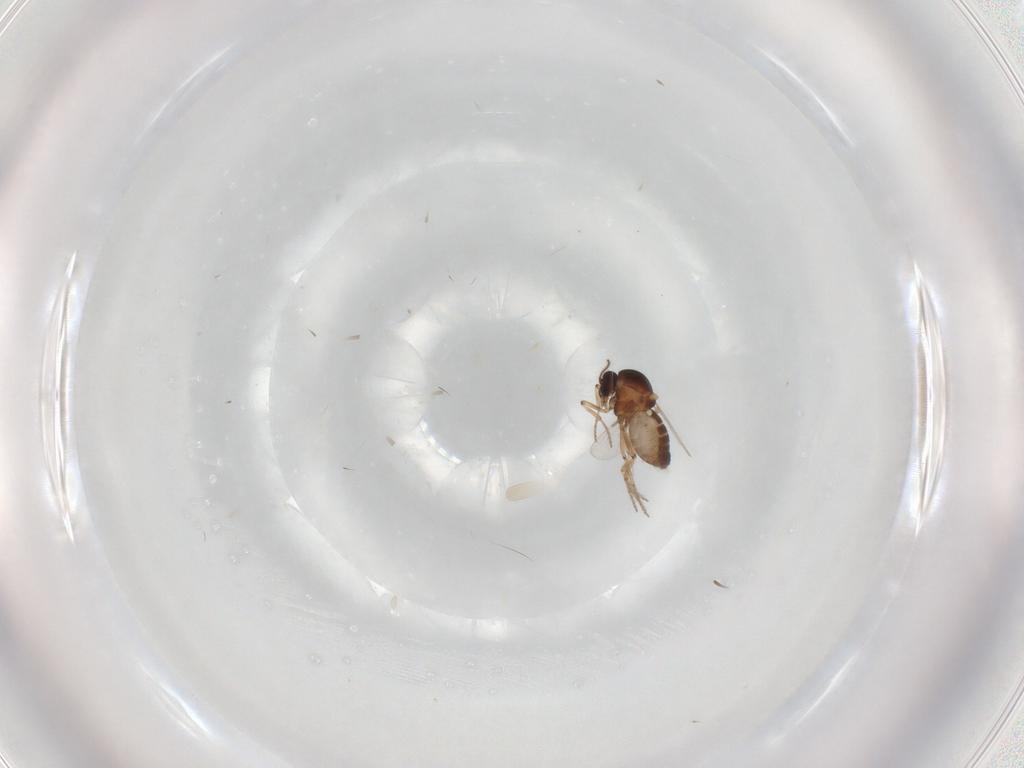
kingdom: Animalia
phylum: Arthropoda
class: Insecta
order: Diptera
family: Ceratopogonidae
